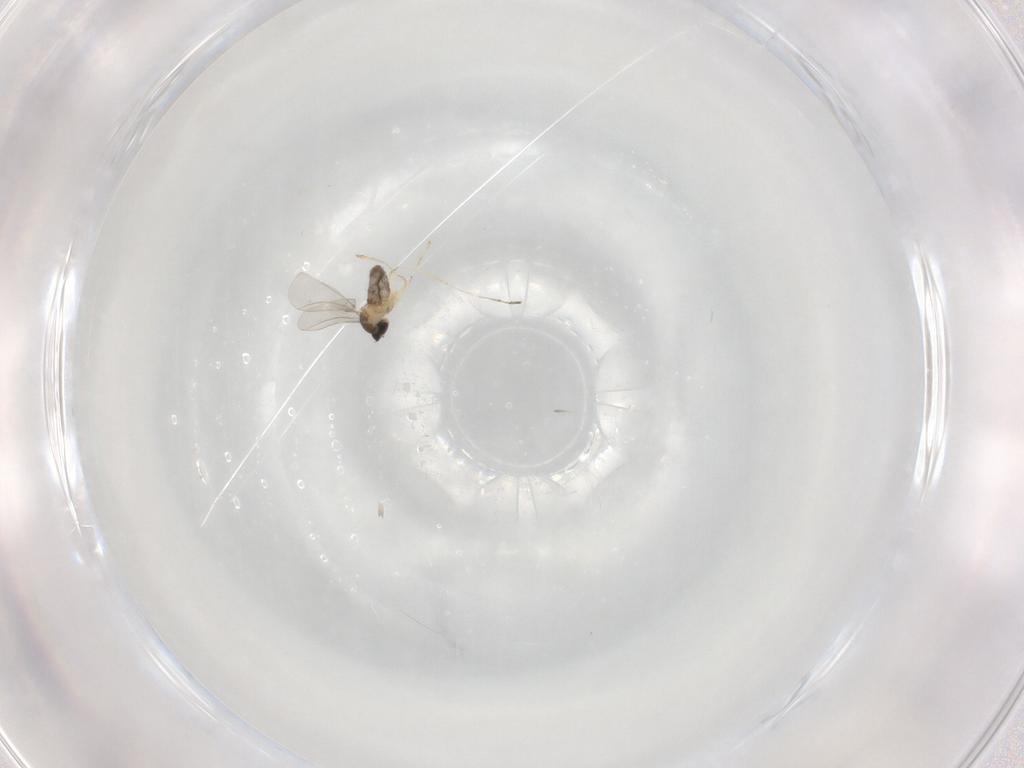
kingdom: Animalia
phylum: Arthropoda
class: Insecta
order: Diptera
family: Cecidomyiidae
